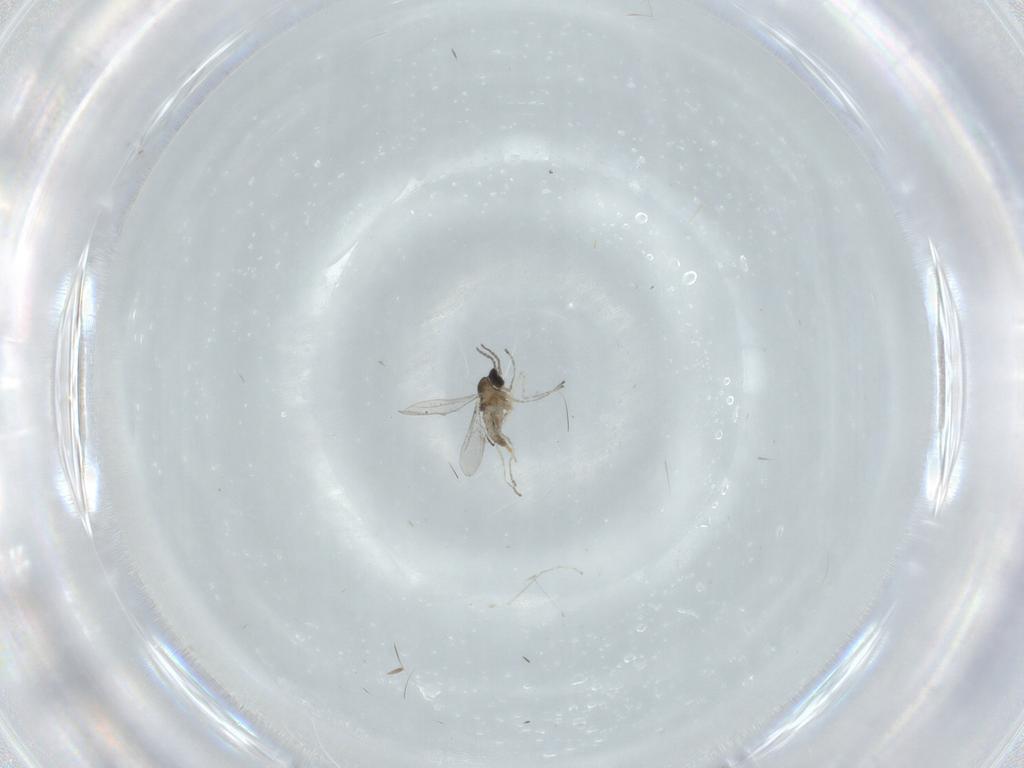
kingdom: Animalia
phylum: Arthropoda
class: Insecta
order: Diptera
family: Cecidomyiidae
